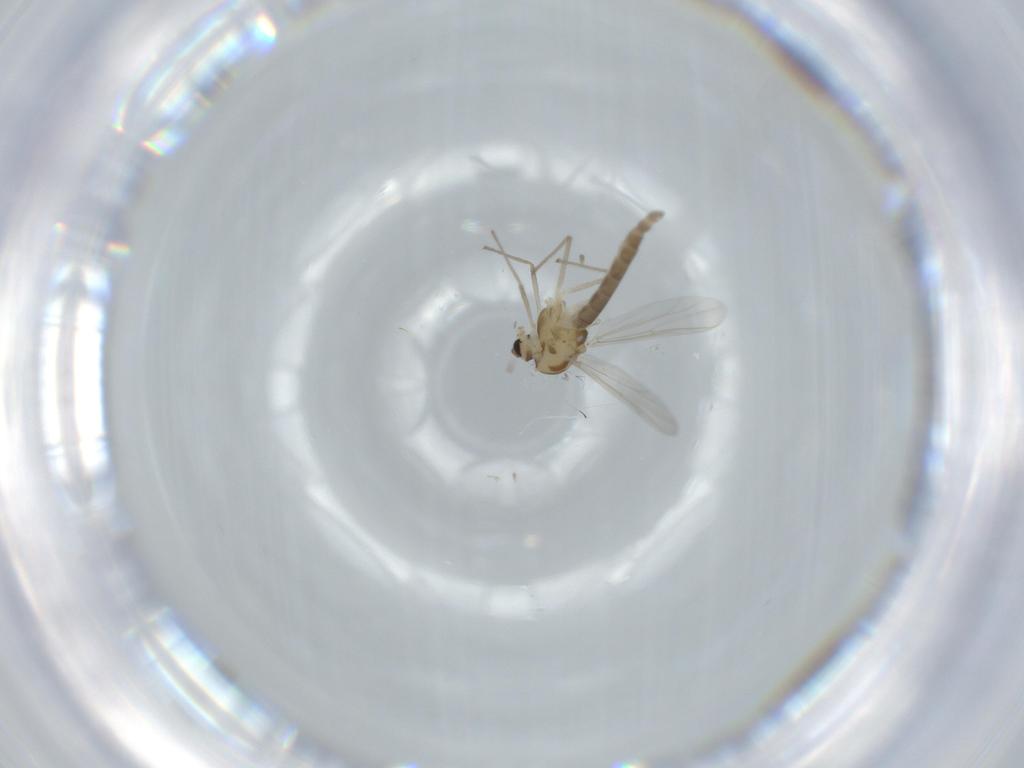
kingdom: Animalia
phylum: Arthropoda
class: Insecta
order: Diptera
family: Chironomidae
